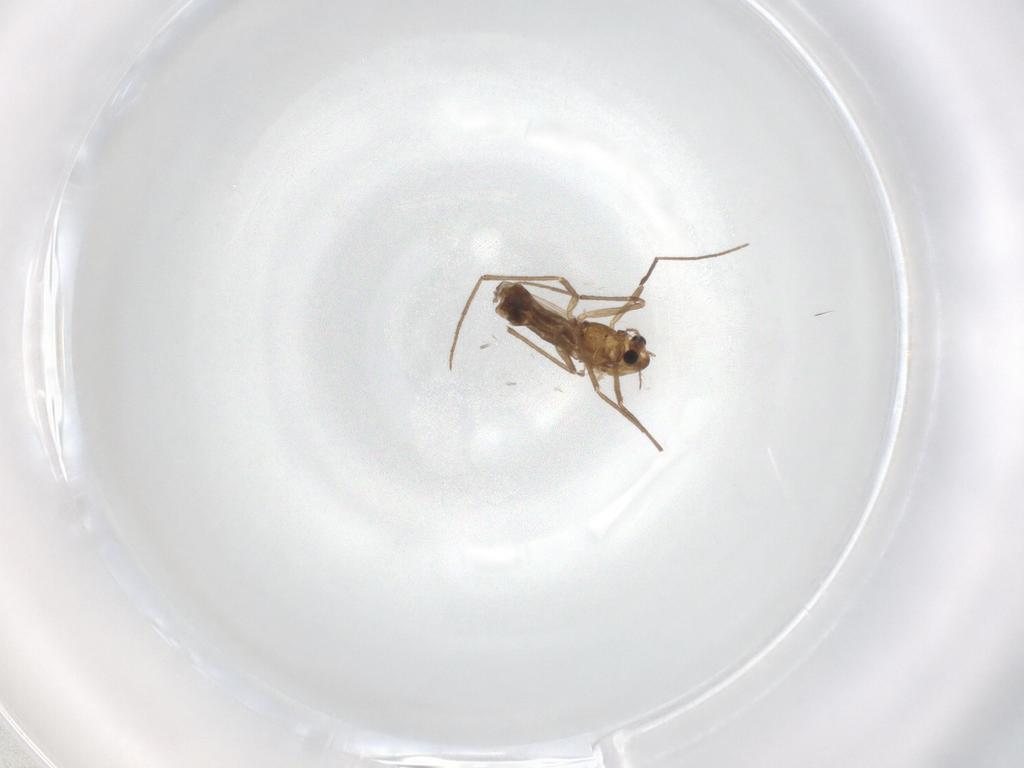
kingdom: Animalia
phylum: Arthropoda
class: Insecta
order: Diptera
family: Chironomidae
